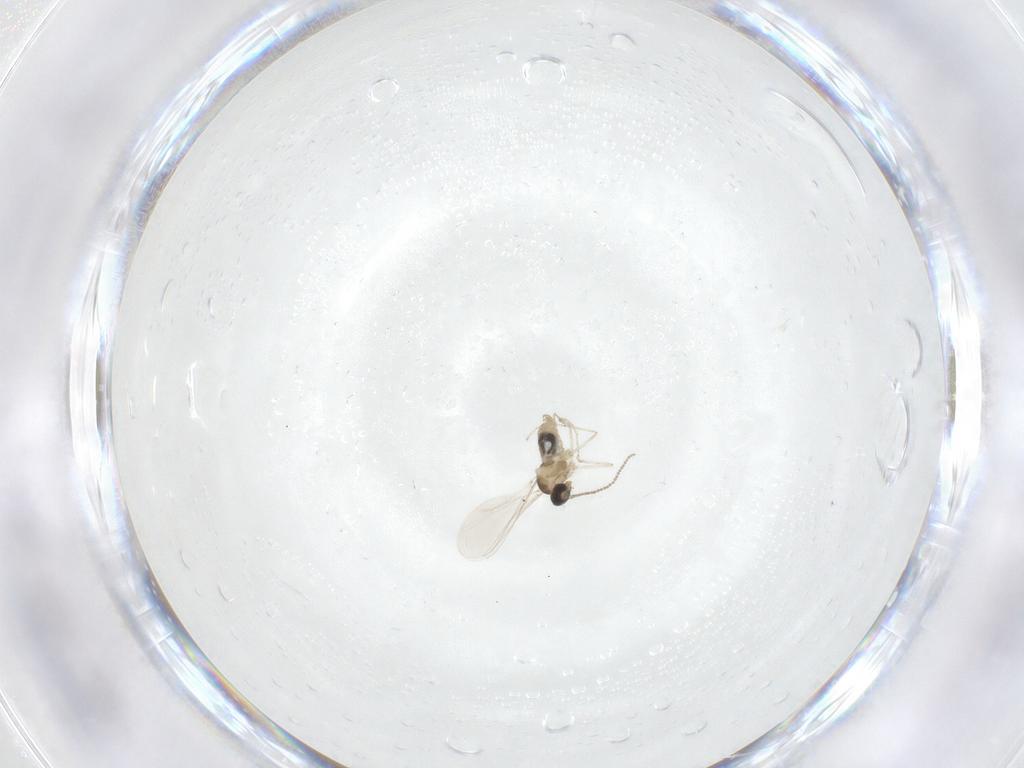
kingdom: Animalia
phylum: Arthropoda
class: Insecta
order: Diptera
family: Cecidomyiidae
